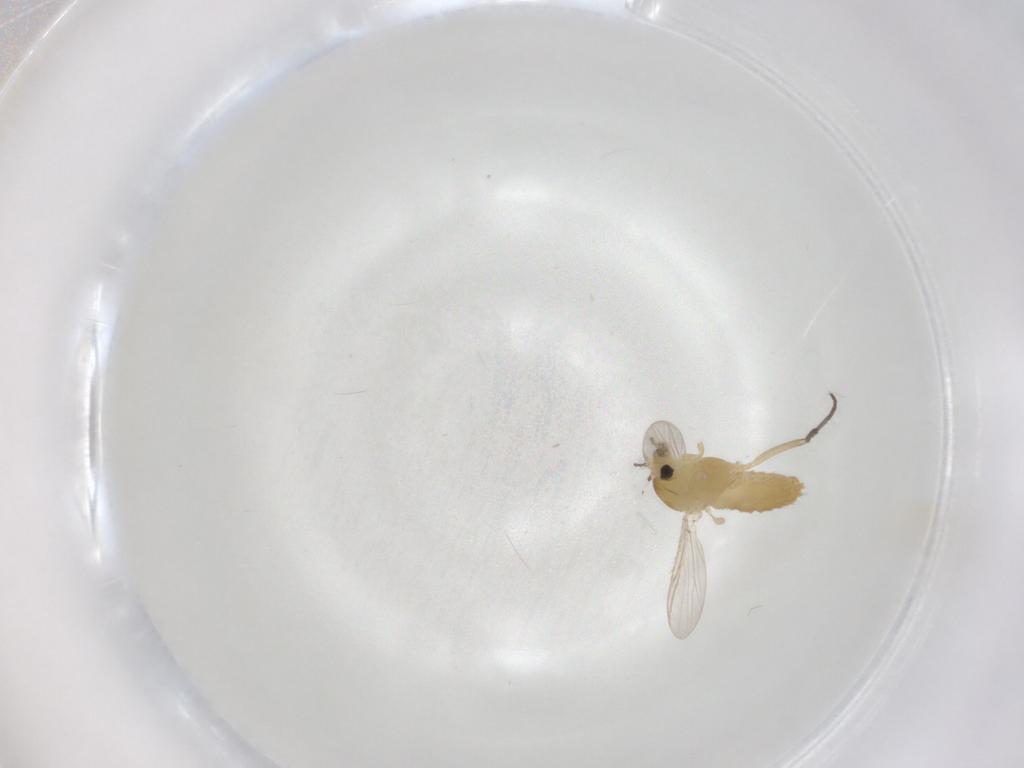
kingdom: Animalia
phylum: Arthropoda
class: Insecta
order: Diptera
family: Chironomidae
